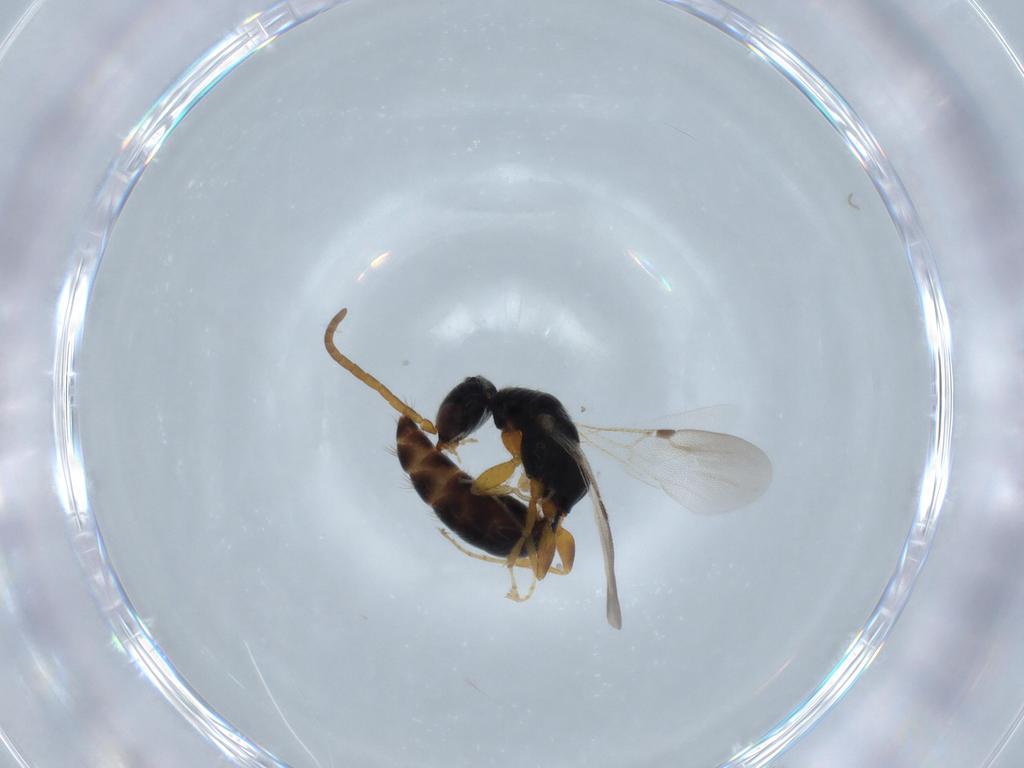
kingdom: Animalia
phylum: Arthropoda
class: Insecta
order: Hymenoptera
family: Bethylidae
